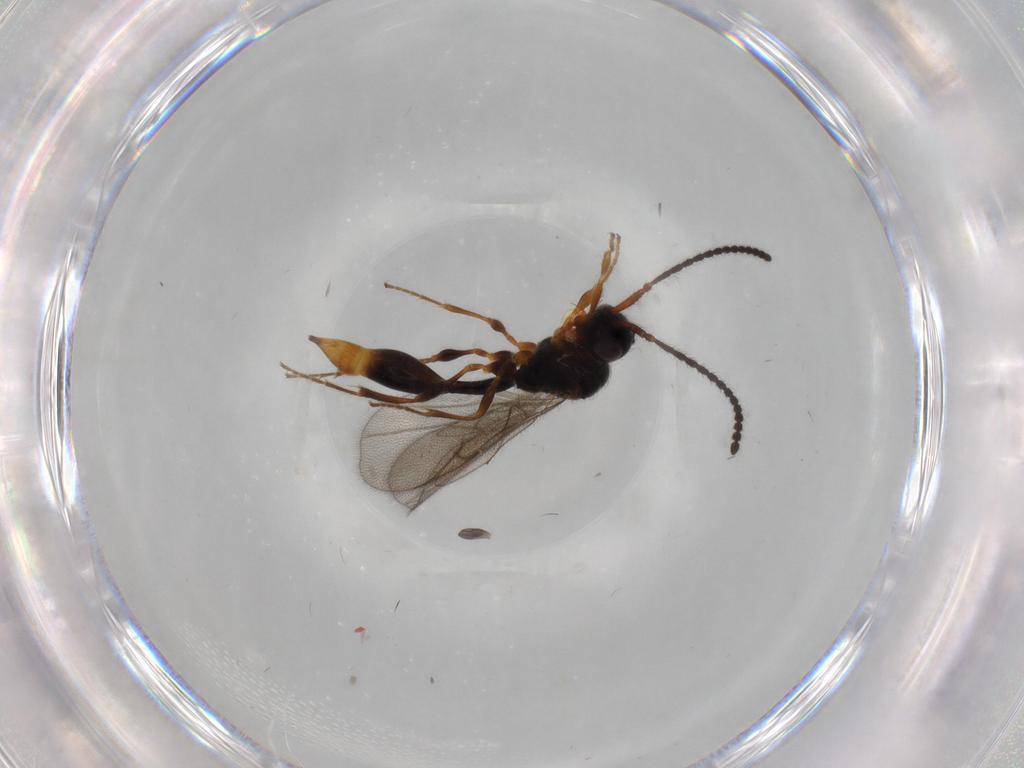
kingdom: Animalia
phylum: Arthropoda
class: Insecta
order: Hymenoptera
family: Diapriidae
